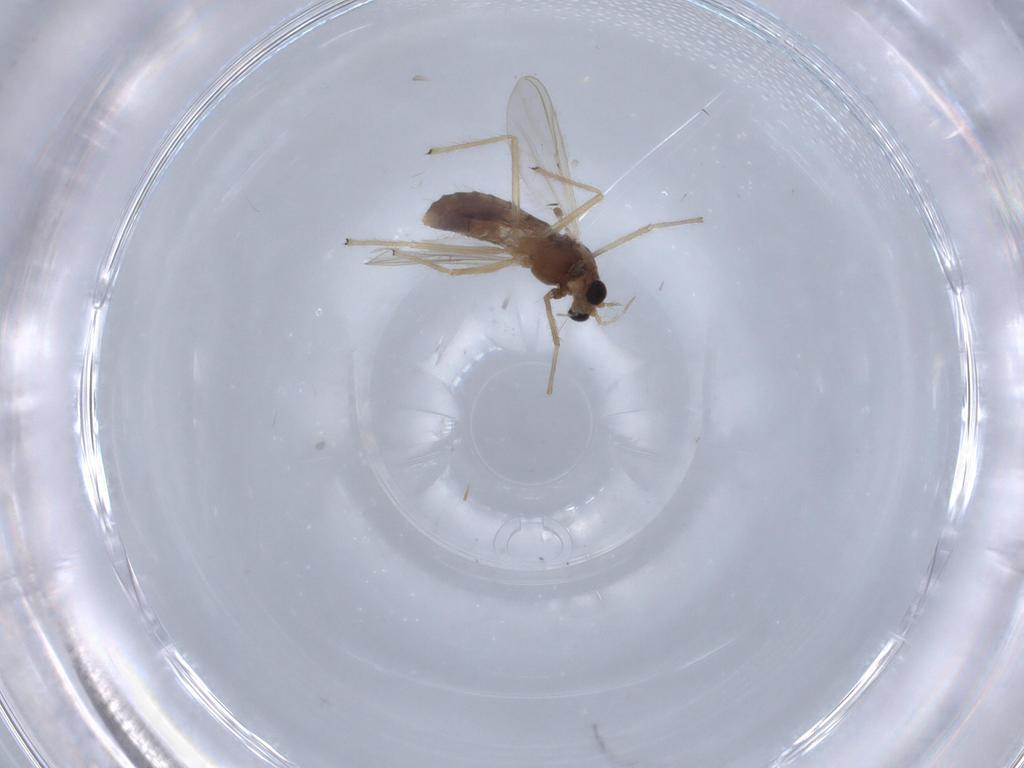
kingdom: Animalia
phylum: Arthropoda
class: Insecta
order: Diptera
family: Chironomidae
